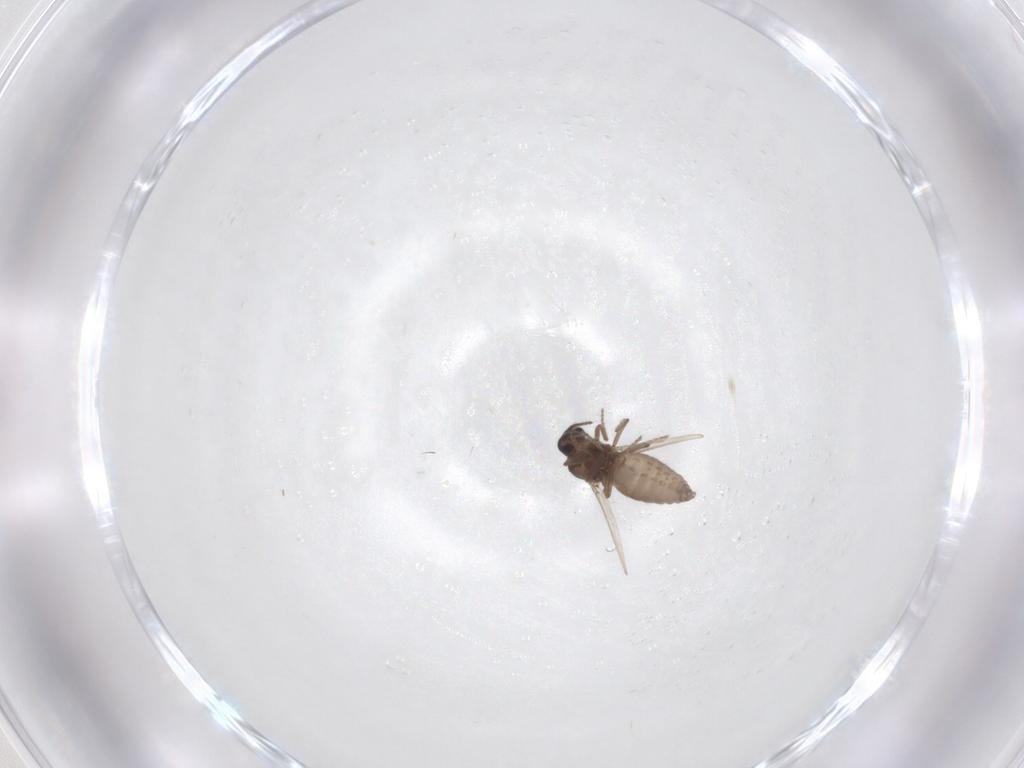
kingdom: Animalia
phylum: Arthropoda
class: Insecta
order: Diptera
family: Ceratopogonidae
